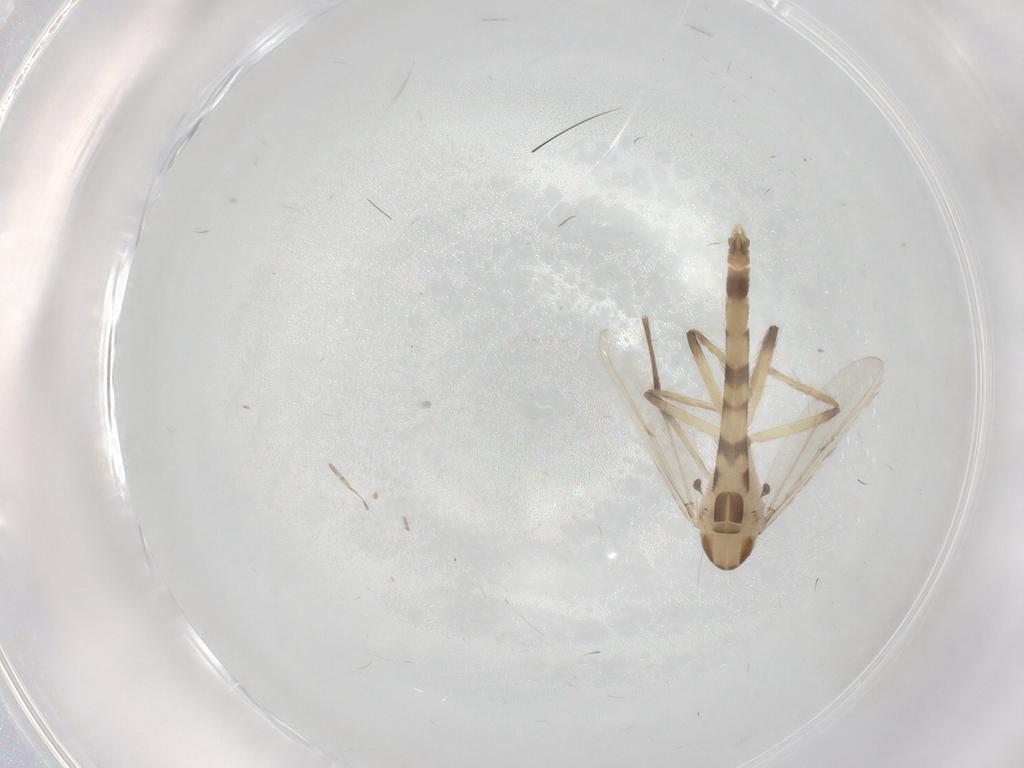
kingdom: Animalia
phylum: Arthropoda
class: Insecta
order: Diptera
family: Chironomidae
